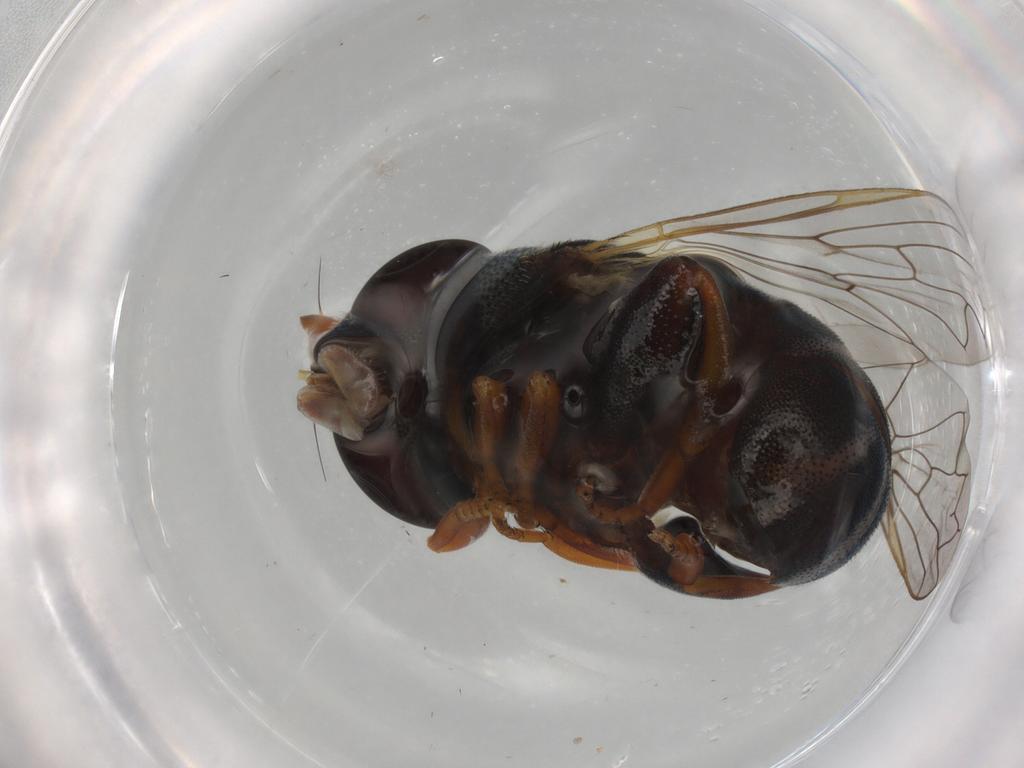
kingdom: Animalia
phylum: Arthropoda
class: Insecta
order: Diptera
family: Syrphidae
